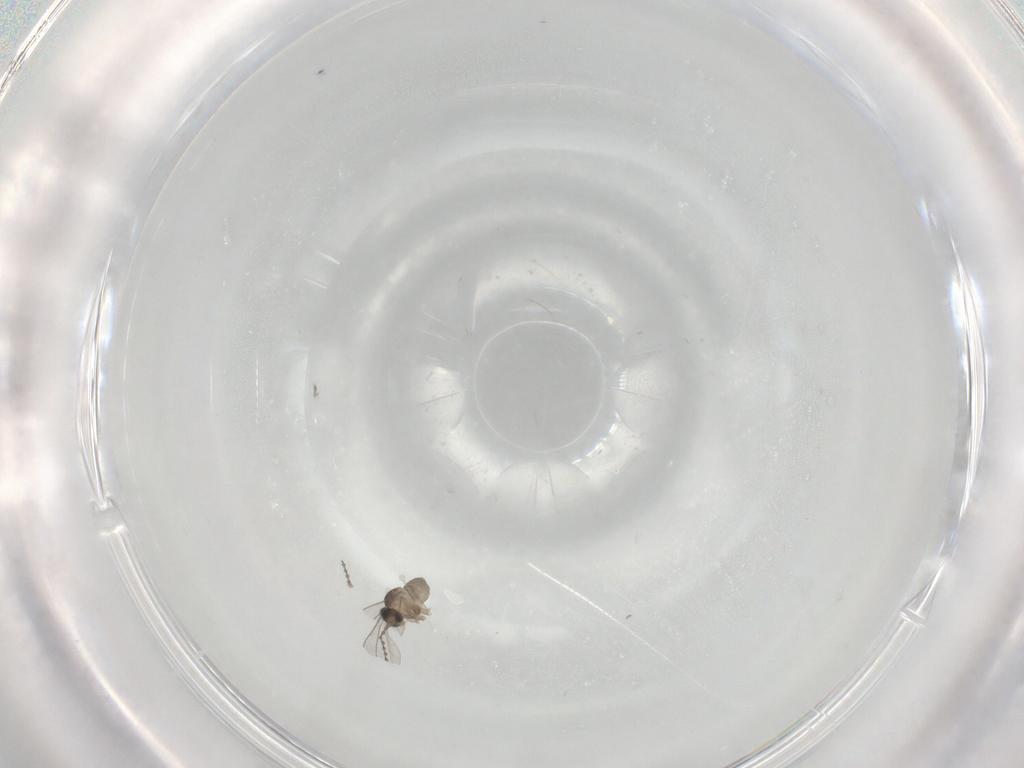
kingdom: Animalia
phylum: Arthropoda
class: Insecta
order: Diptera
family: Cecidomyiidae
